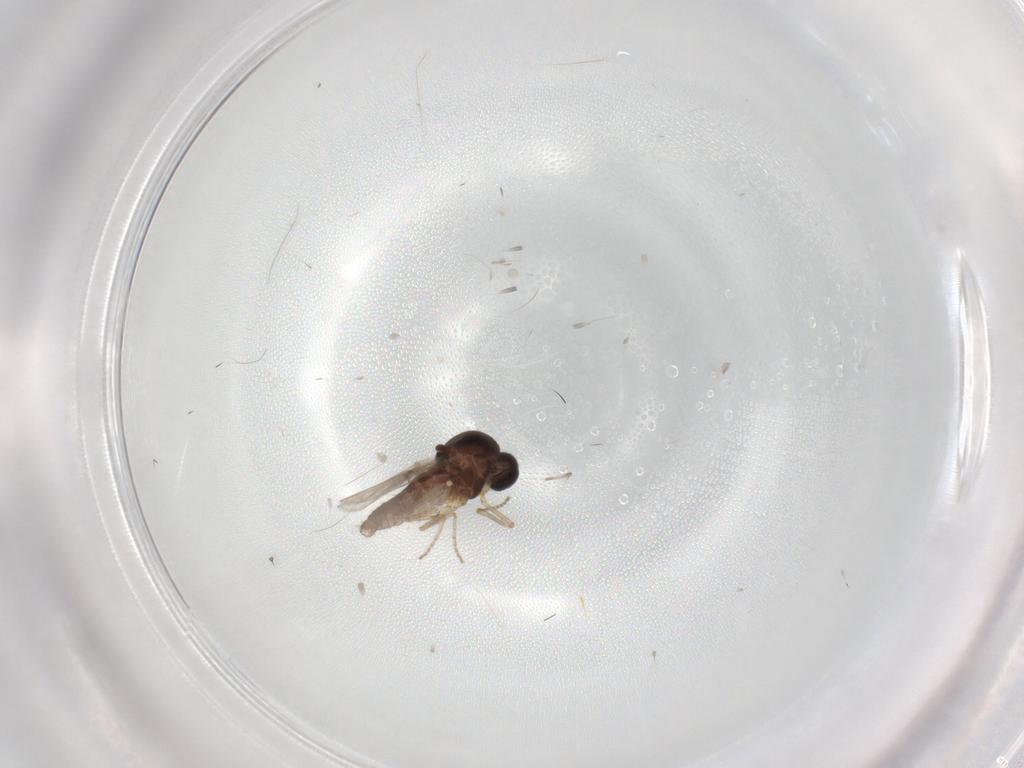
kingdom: Animalia
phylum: Arthropoda
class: Insecta
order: Diptera
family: Ceratopogonidae
